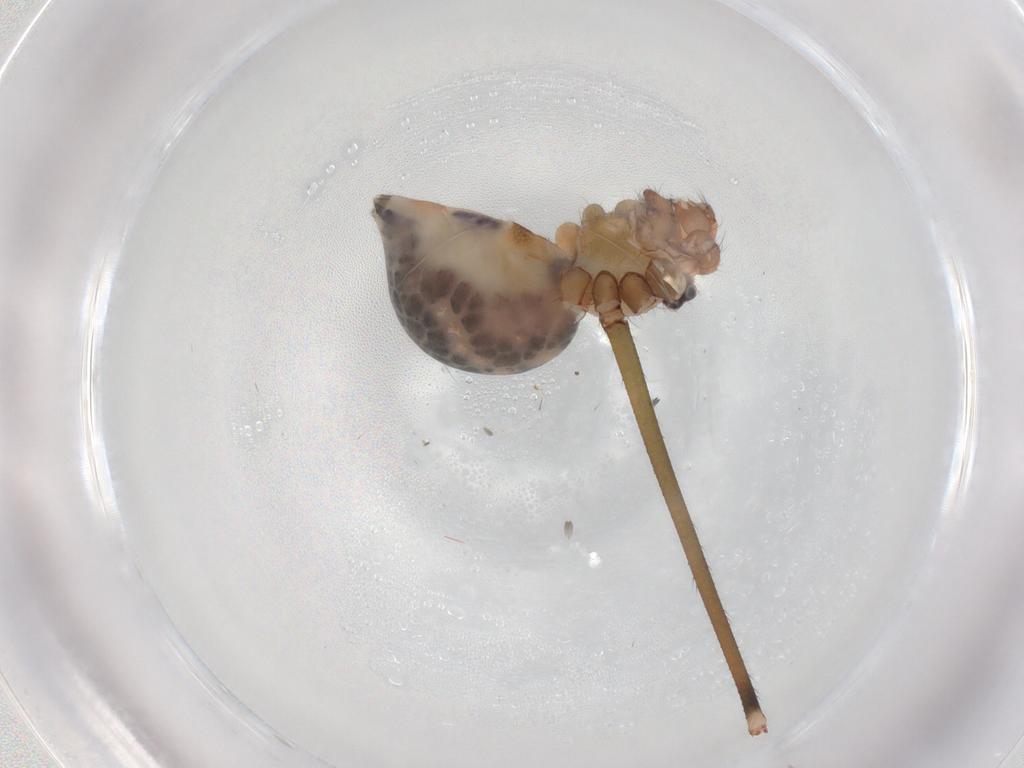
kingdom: Animalia
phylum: Arthropoda
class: Arachnida
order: Araneae
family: Pholcidae
